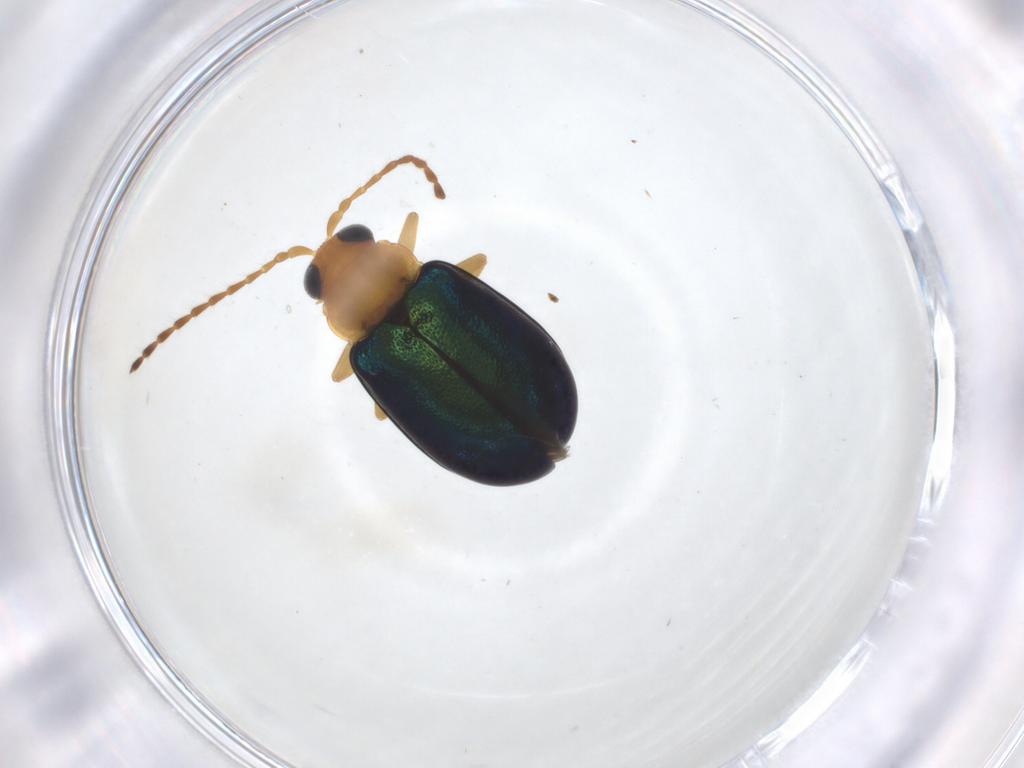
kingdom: Animalia
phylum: Arthropoda
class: Insecta
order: Coleoptera
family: Chrysomelidae
